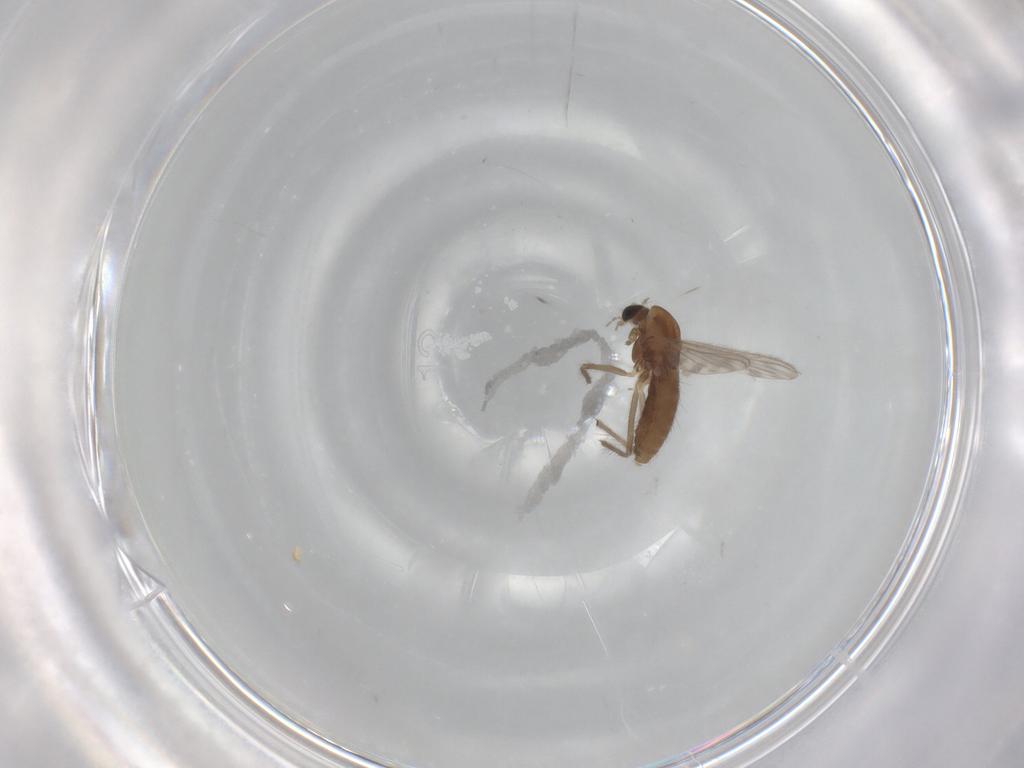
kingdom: Animalia
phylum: Arthropoda
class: Insecta
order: Diptera
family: Chironomidae
